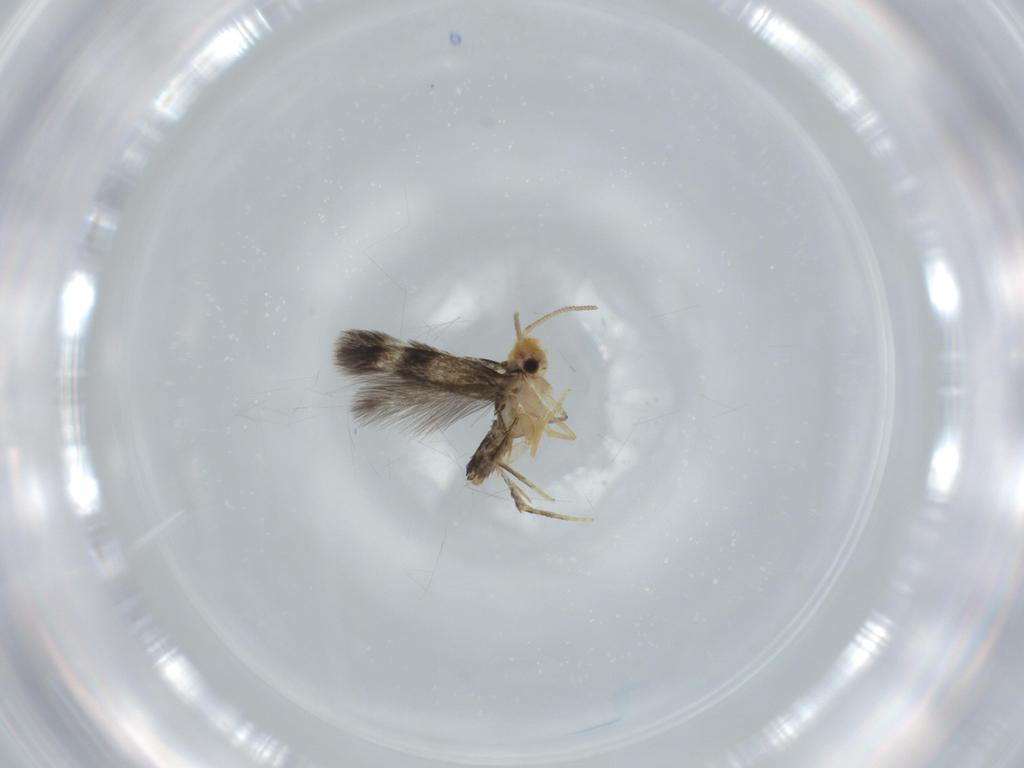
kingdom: Animalia
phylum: Arthropoda
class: Insecta
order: Lepidoptera
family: Nepticulidae
